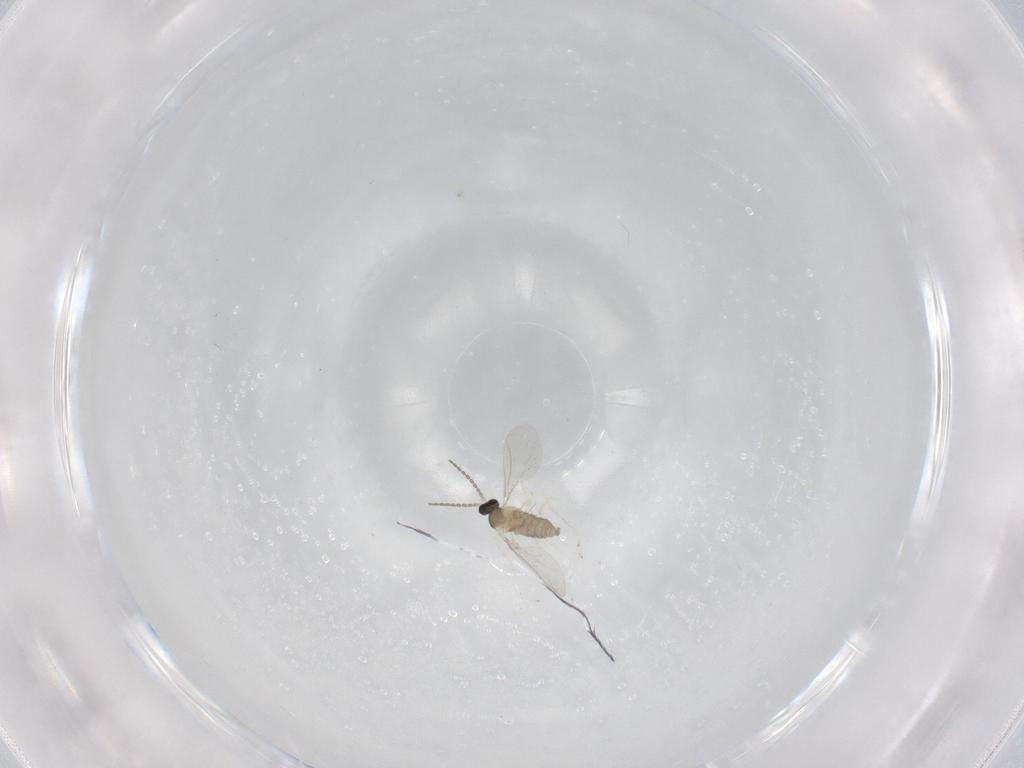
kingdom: Animalia
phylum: Arthropoda
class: Insecta
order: Diptera
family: Cecidomyiidae
